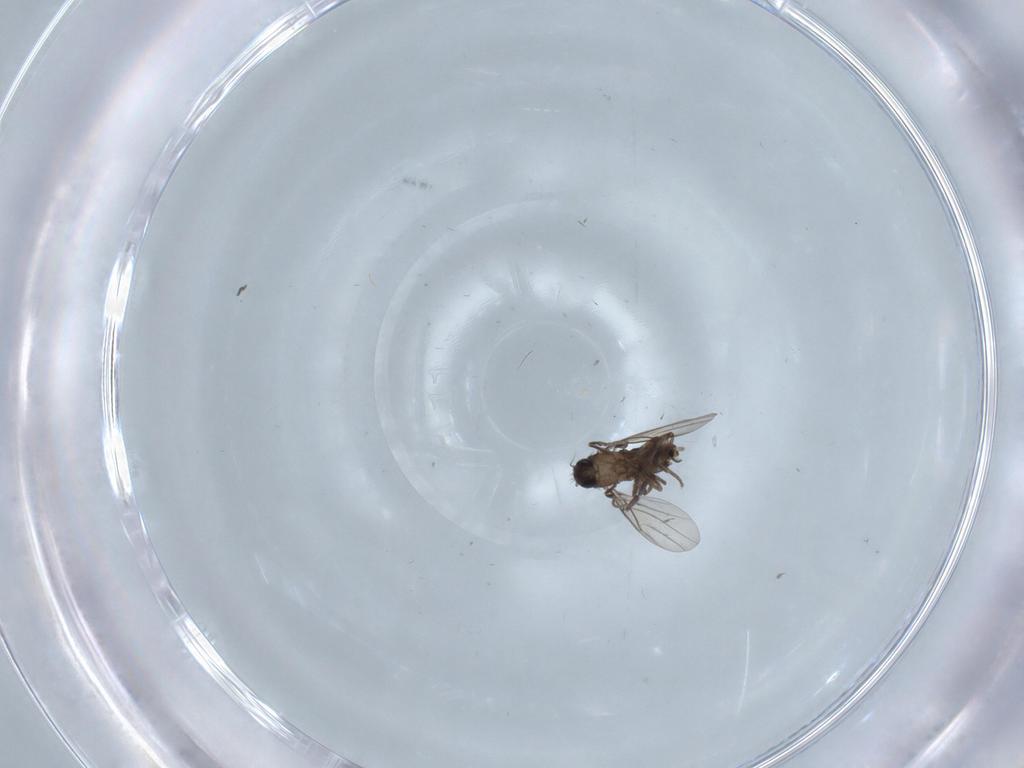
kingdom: Animalia
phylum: Arthropoda
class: Insecta
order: Diptera
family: Chironomidae
